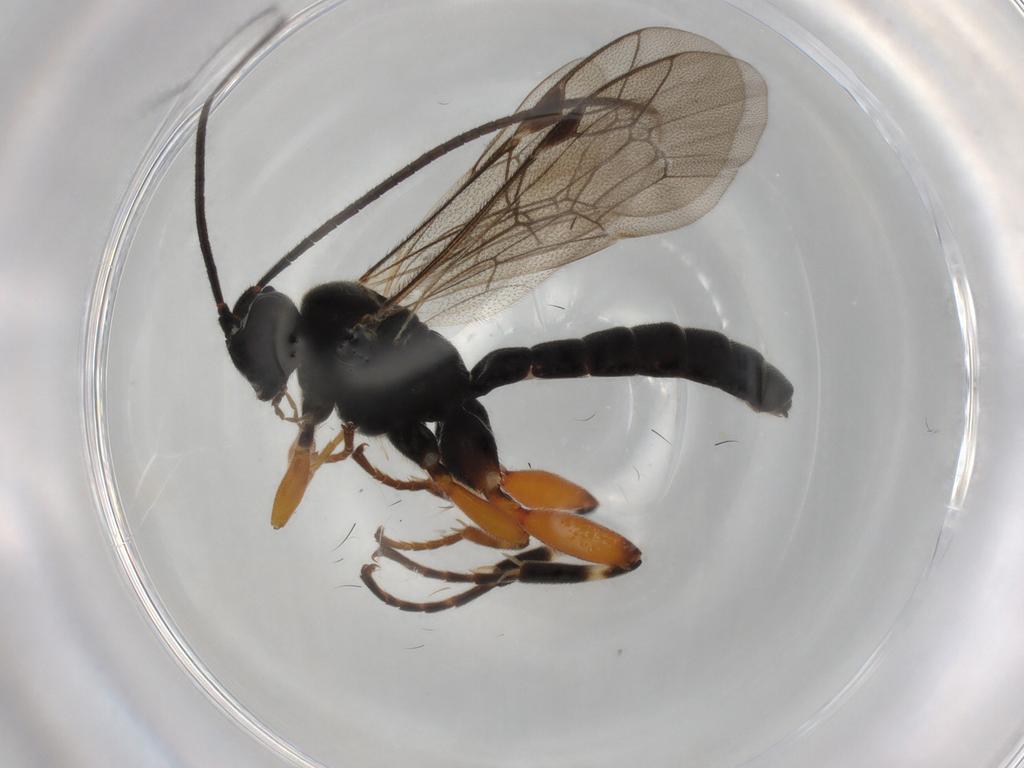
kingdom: Animalia
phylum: Arthropoda
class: Insecta
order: Hymenoptera
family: Ichneumonidae
